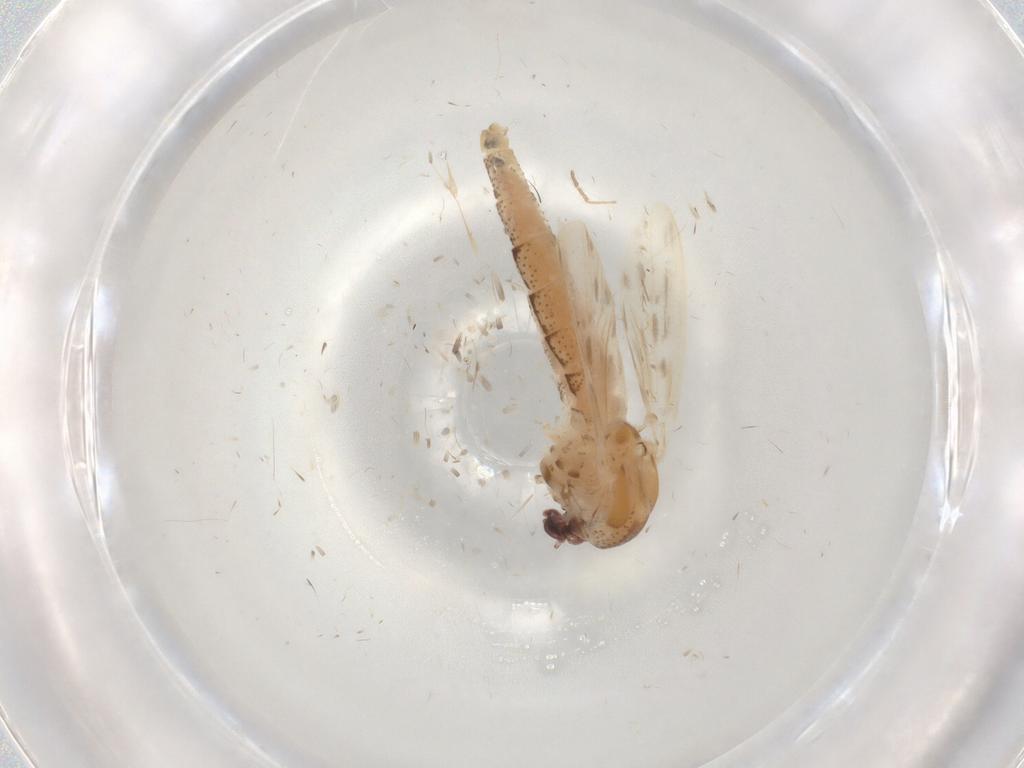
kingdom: Animalia
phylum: Arthropoda
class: Insecta
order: Diptera
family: Chaoboridae
